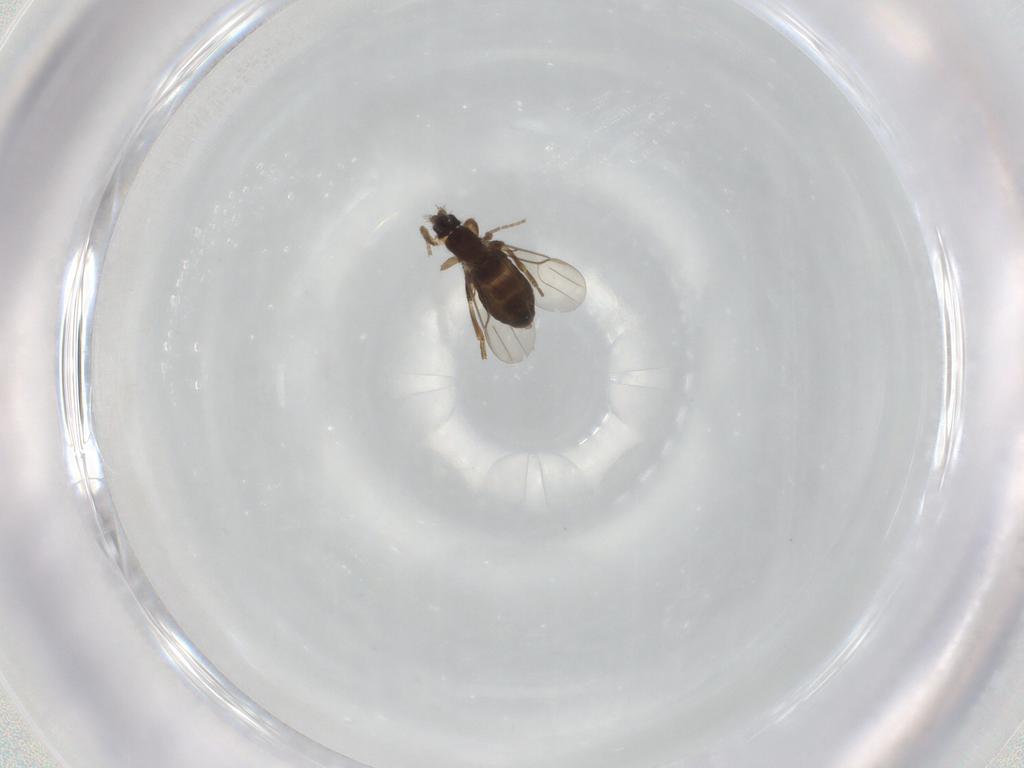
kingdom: Animalia
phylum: Arthropoda
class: Insecta
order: Diptera
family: Phoridae
